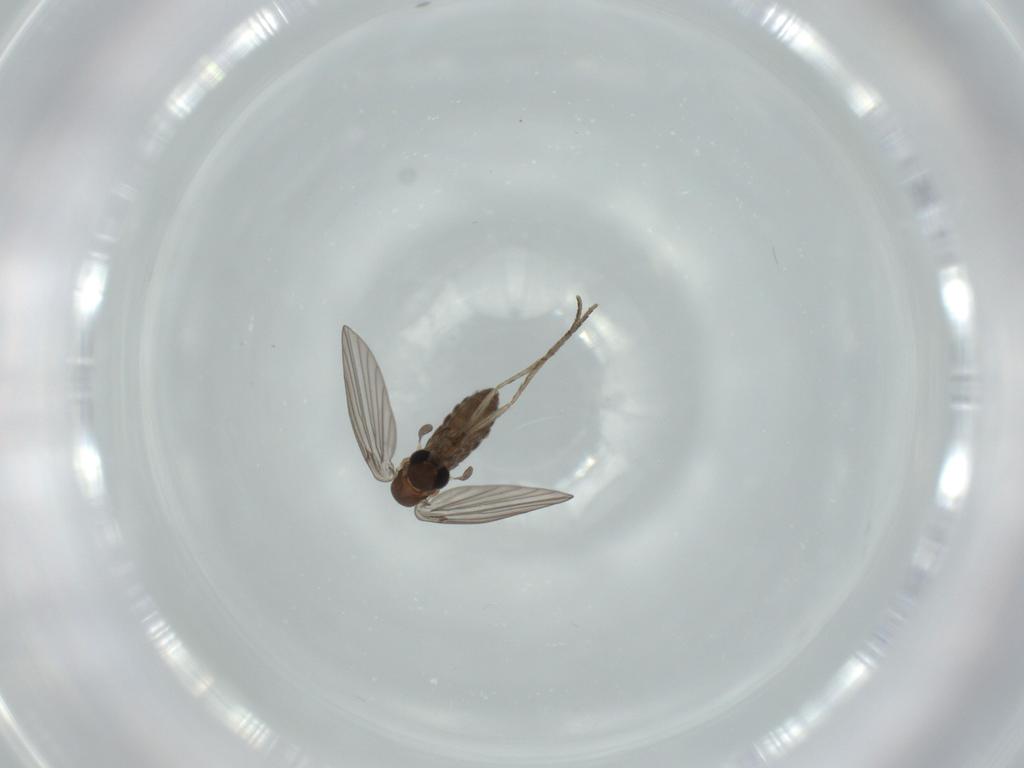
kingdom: Animalia
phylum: Arthropoda
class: Insecta
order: Diptera
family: Psychodidae
